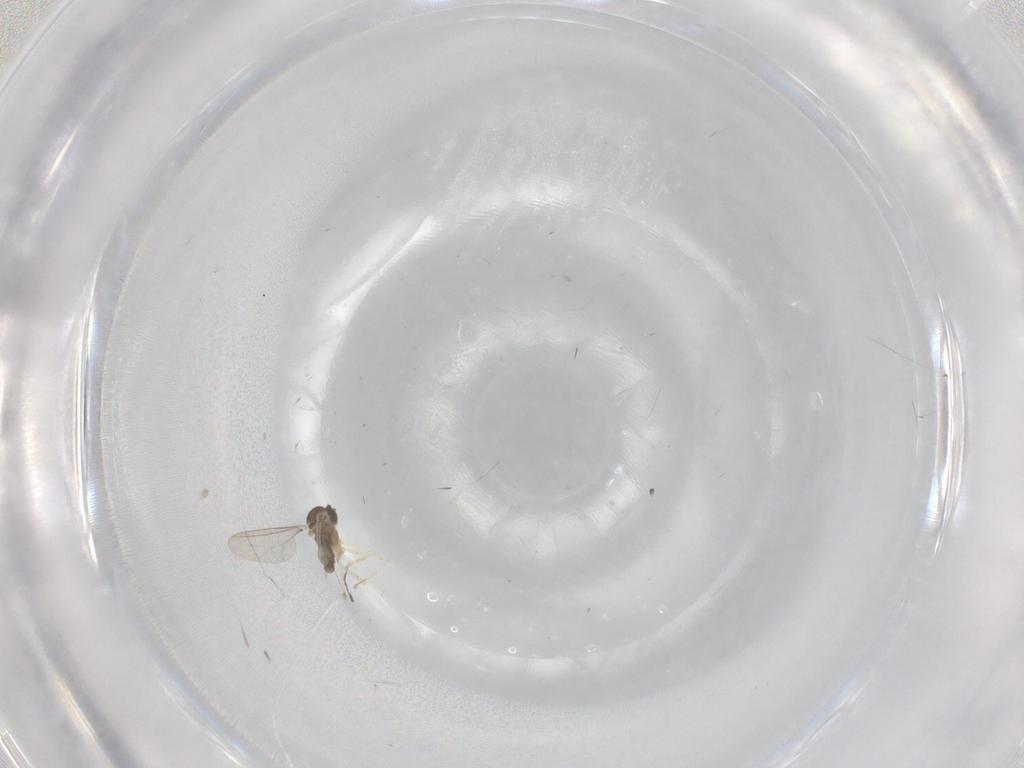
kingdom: Animalia
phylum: Arthropoda
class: Insecta
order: Diptera
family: Cecidomyiidae
